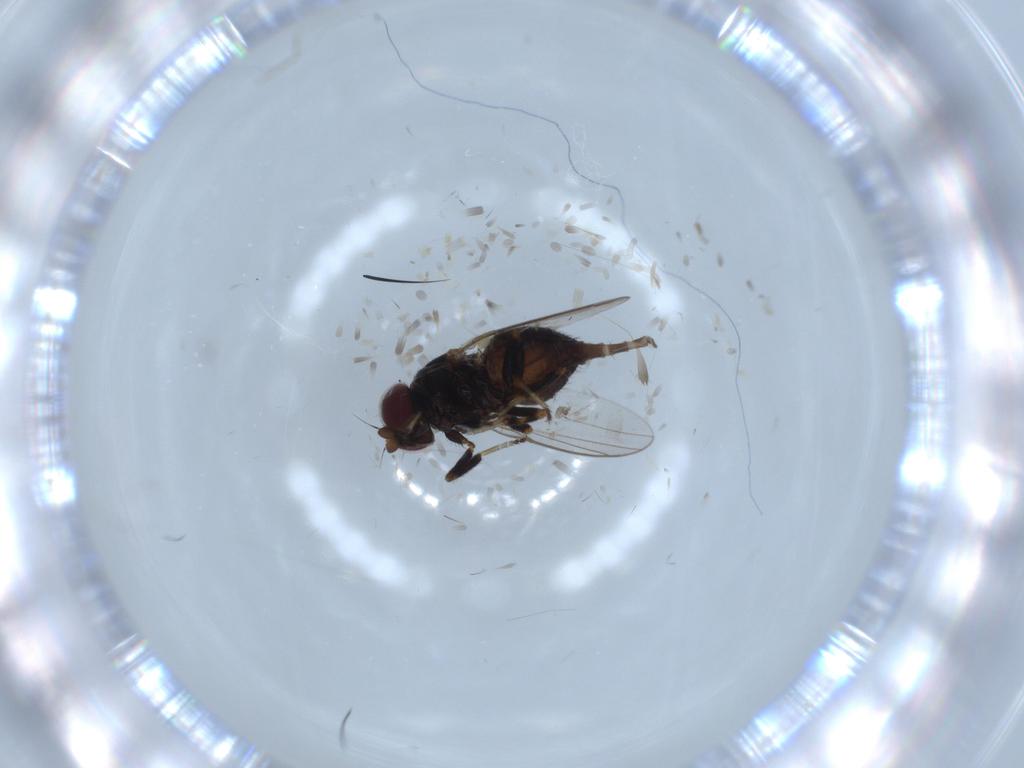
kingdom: Animalia
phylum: Arthropoda
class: Insecta
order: Diptera
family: Chloropidae
